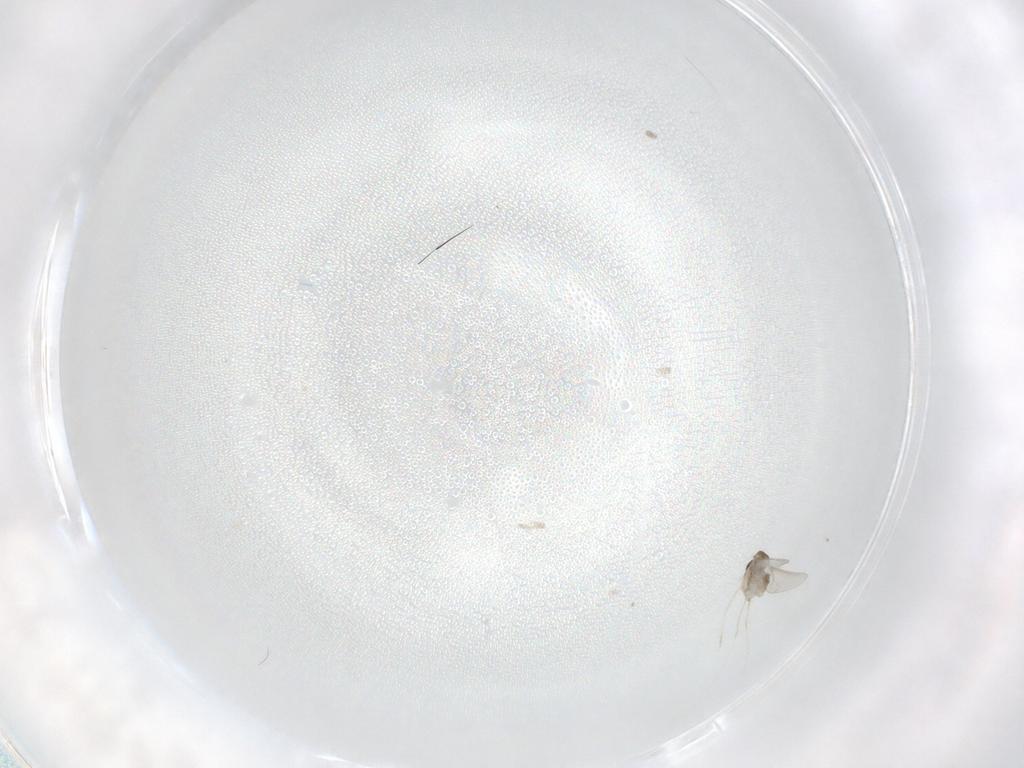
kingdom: Animalia
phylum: Arthropoda
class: Insecta
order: Diptera
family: Cecidomyiidae
